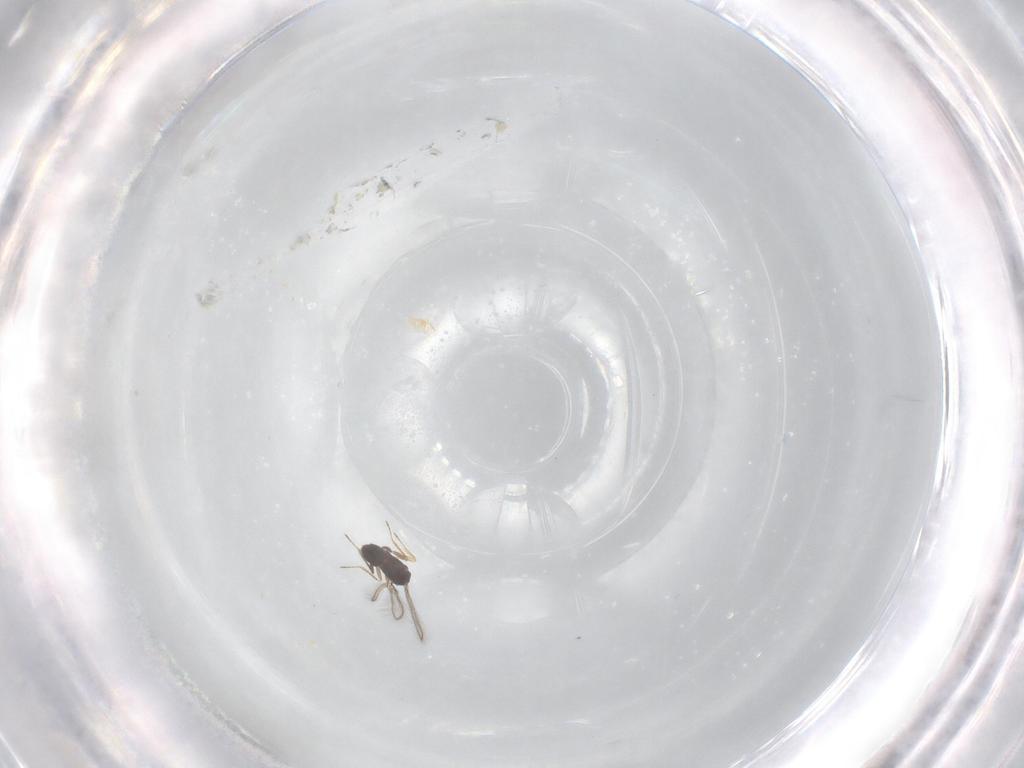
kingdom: Animalia
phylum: Arthropoda
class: Insecta
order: Hymenoptera
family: Mymaridae
